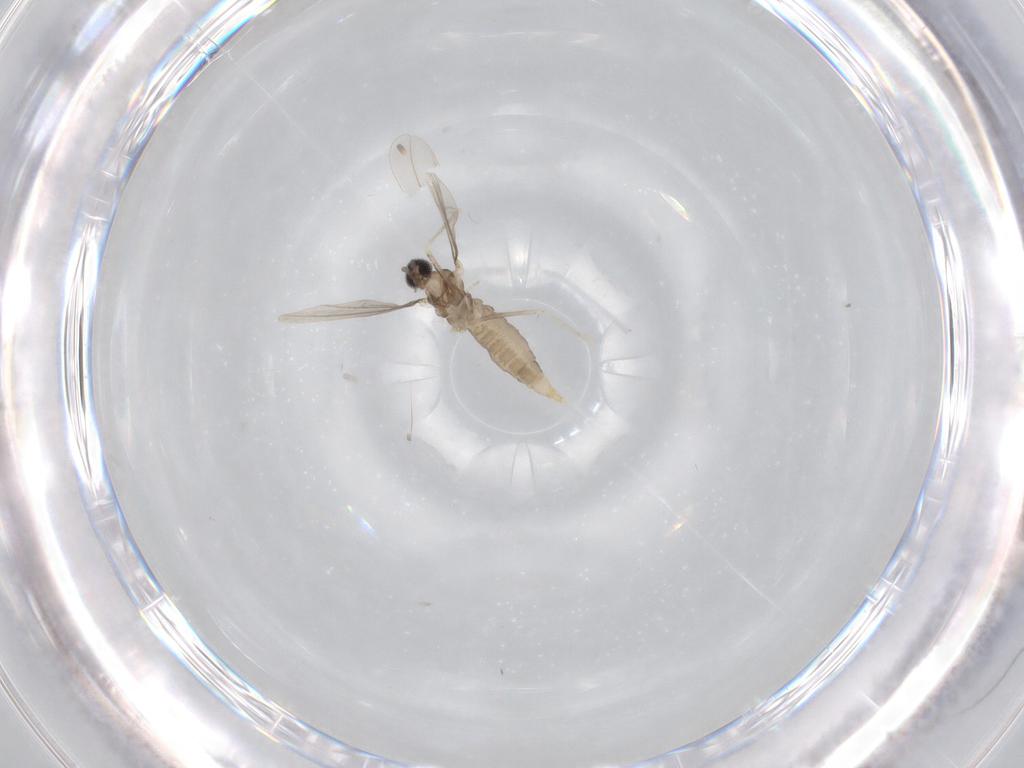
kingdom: Animalia
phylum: Arthropoda
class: Insecta
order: Diptera
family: Cecidomyiidae
